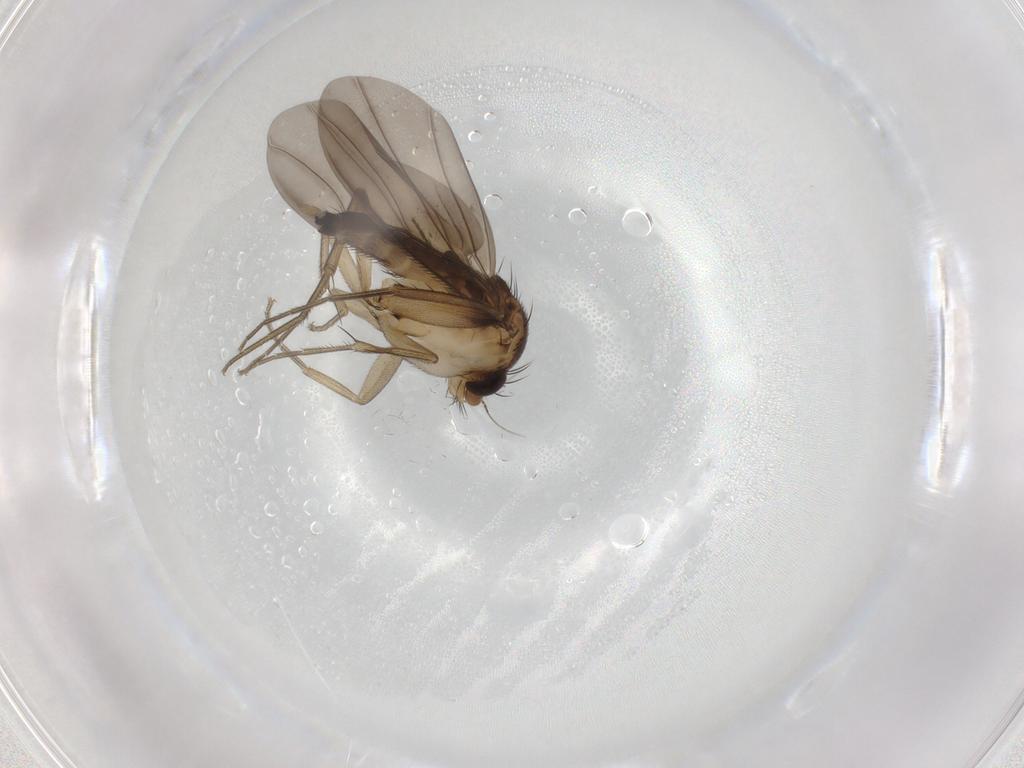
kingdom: Animalia
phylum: Arthropoda
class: Insecta
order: Diptera
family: Phoridae
